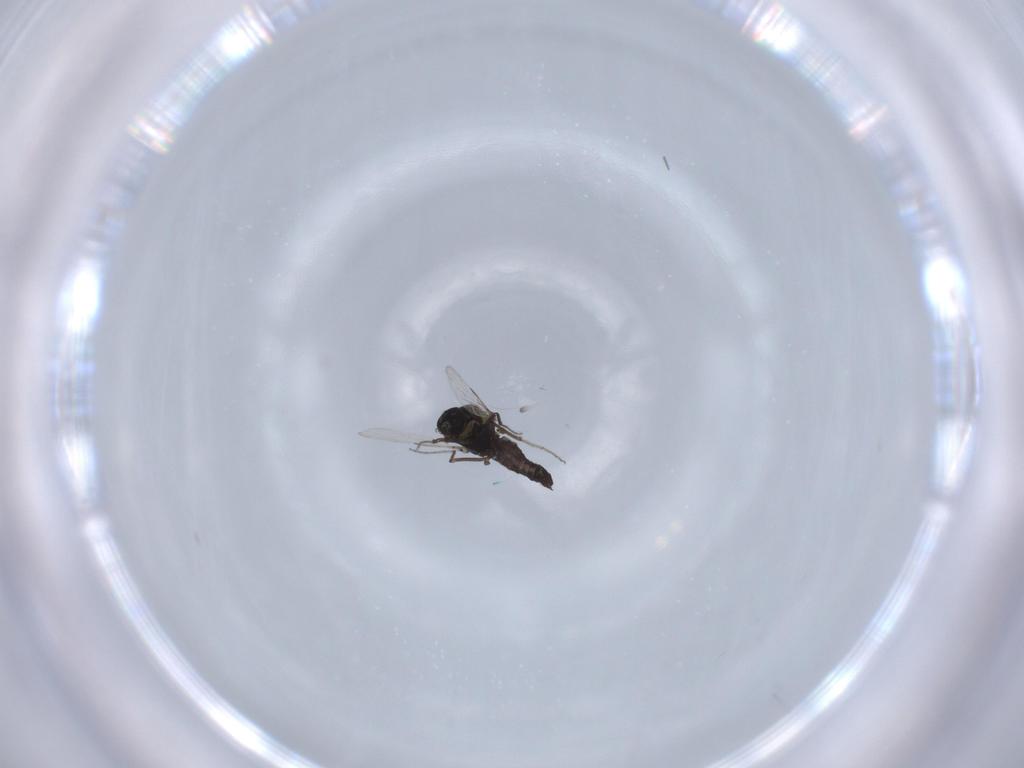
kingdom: Animalia
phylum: Arthropoda
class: Insecta
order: Diptera
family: Ceratopogonidae
